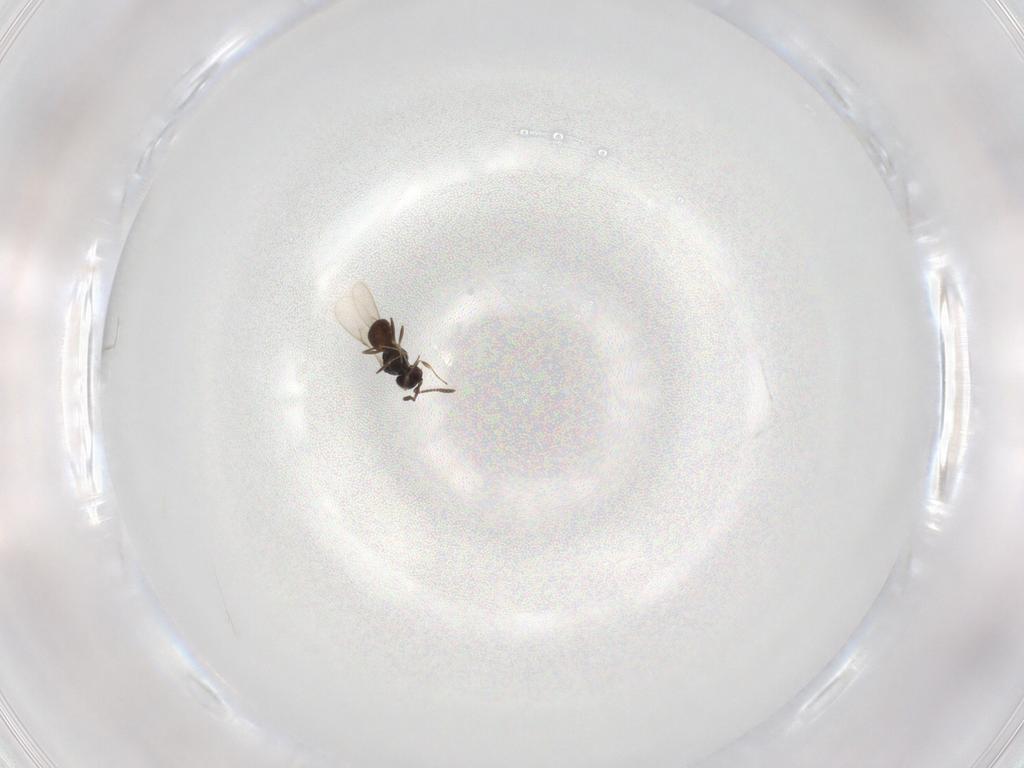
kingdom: Animalia
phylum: Arthropoda
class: Insecta
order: Hymenoptera
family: Scelionidae
